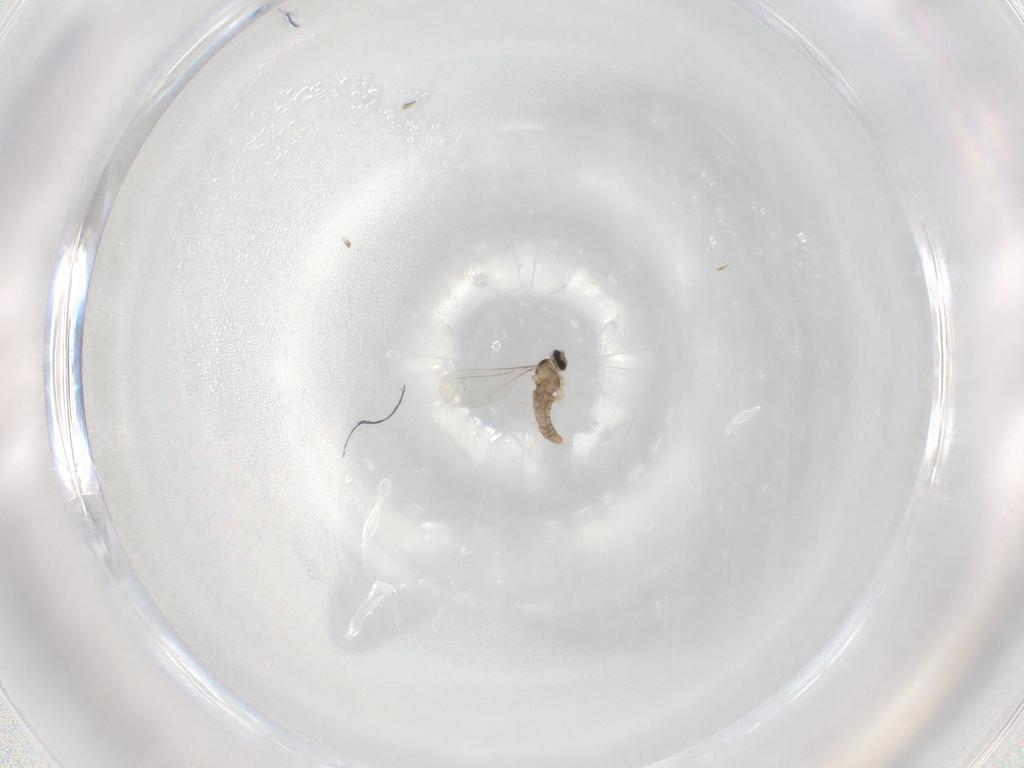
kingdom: Animalia
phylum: Arthropoda
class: Insecta
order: Diptera
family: Cecidomyiidae
